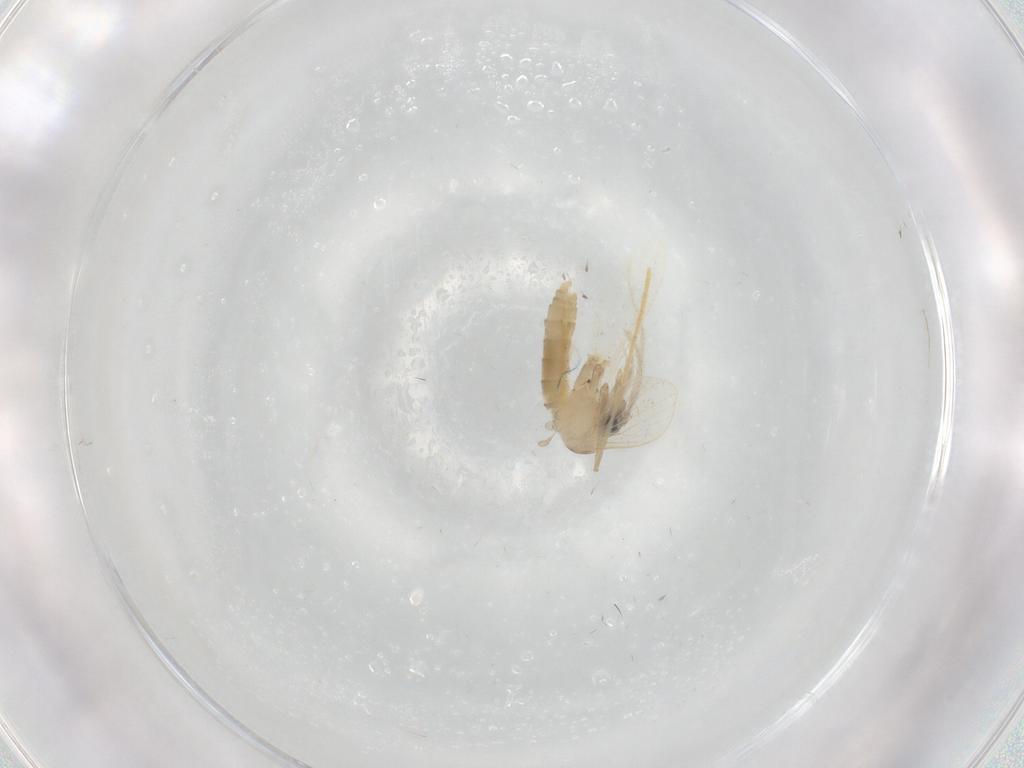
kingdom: Animalia
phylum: Arthropoda
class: Insecta
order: Diptera
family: Psychodidae
